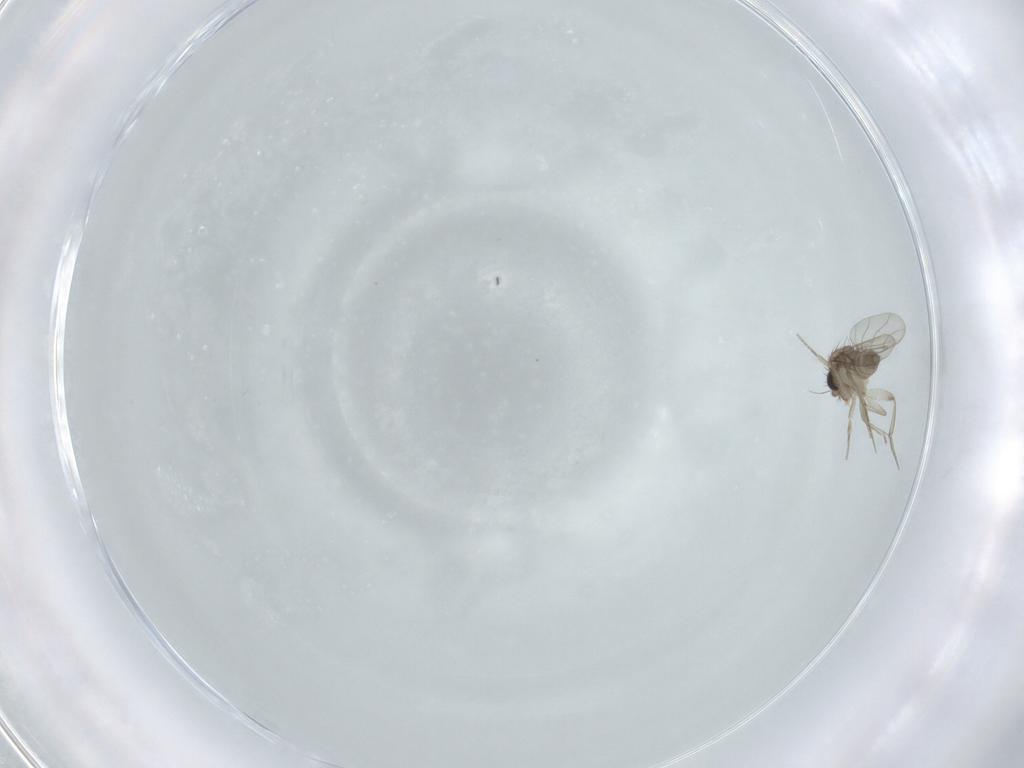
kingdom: Animalia
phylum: Arthropoda
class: Insecta
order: Diptera
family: Phoridae
